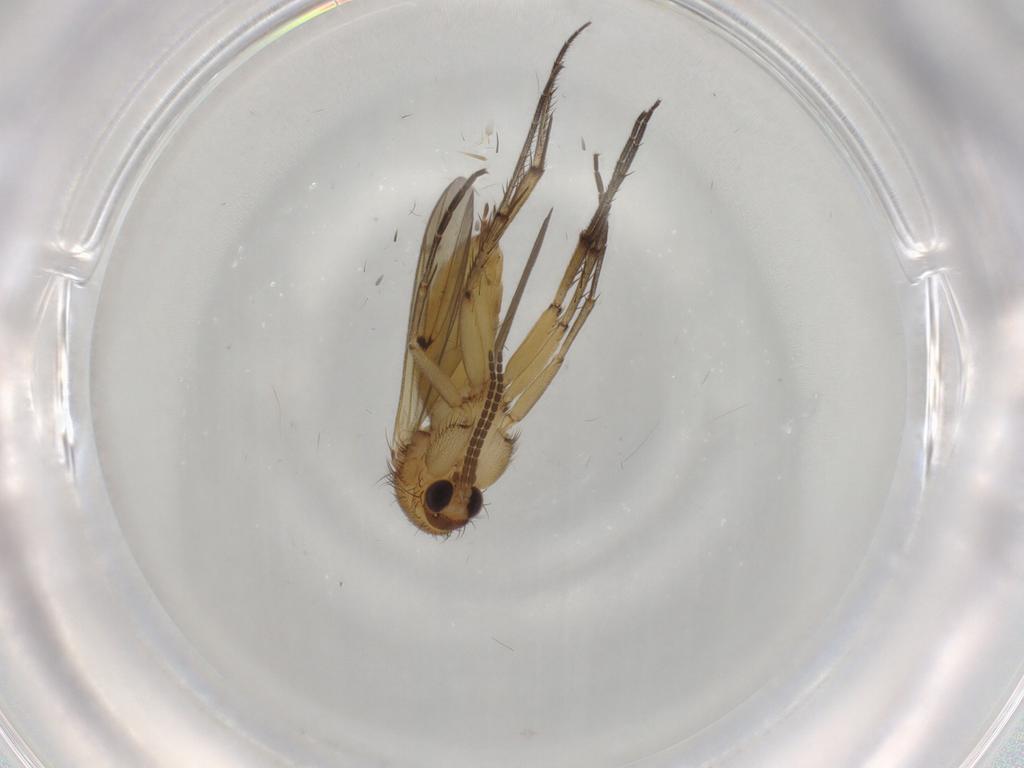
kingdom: Animalia
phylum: Arthropoda
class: Insecta
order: Diptera
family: Mycetophilidae
